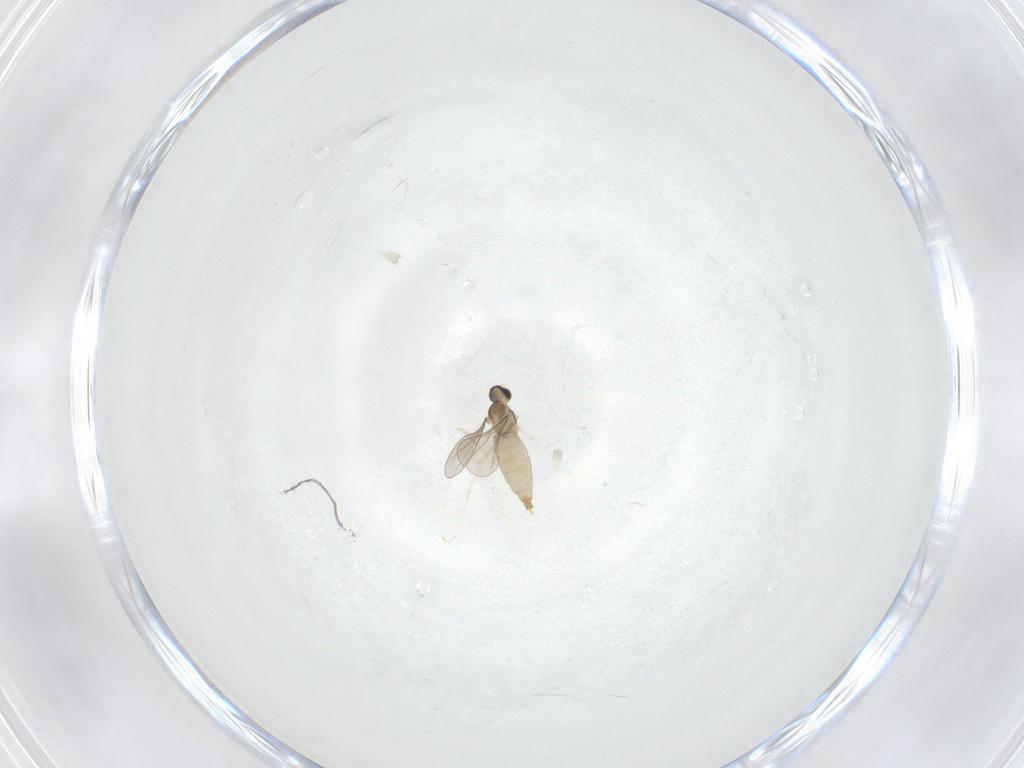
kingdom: Animalia
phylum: Arthropoda
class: Insecta
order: Diptera
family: Cecidomyiidae
